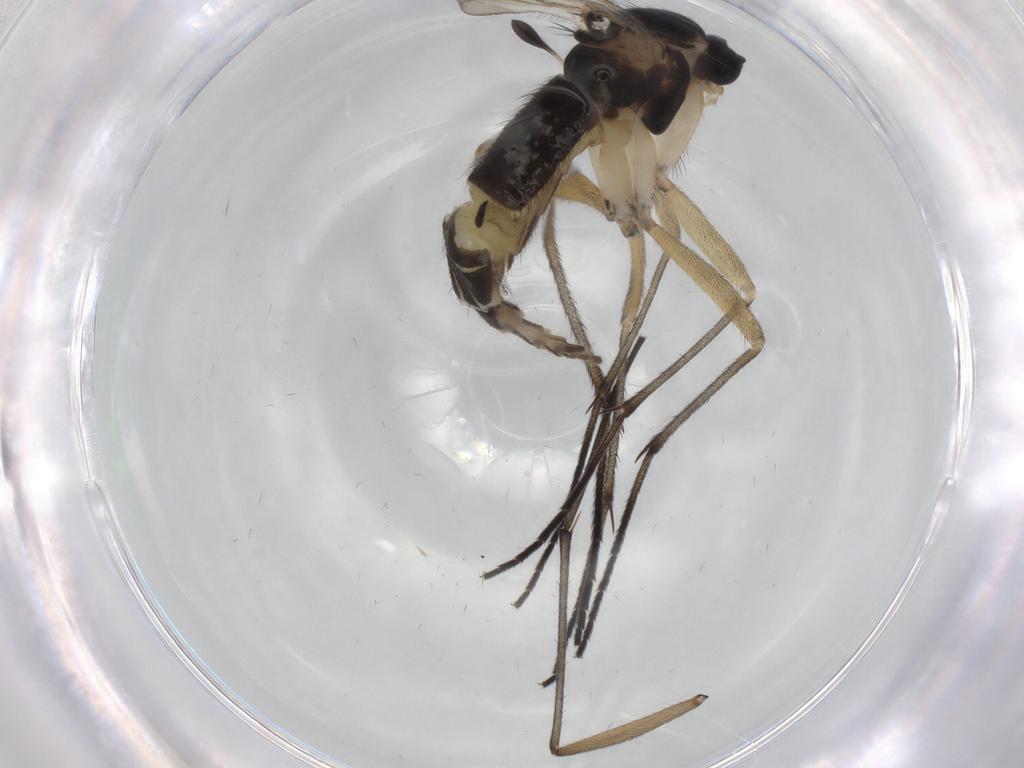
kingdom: Animalia
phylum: Arthropoda
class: Insecta
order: Diptera
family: Sciaridae
